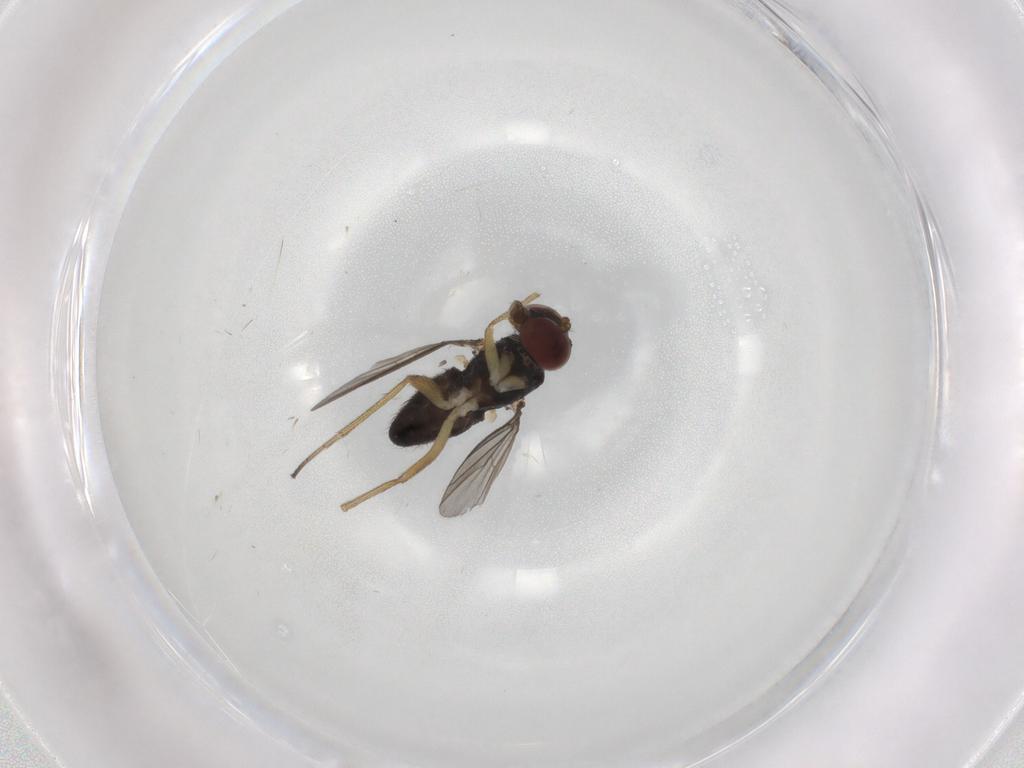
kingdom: Animalia
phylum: Arthropoda
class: Insecta
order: Diptera
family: Dolichopodidae
